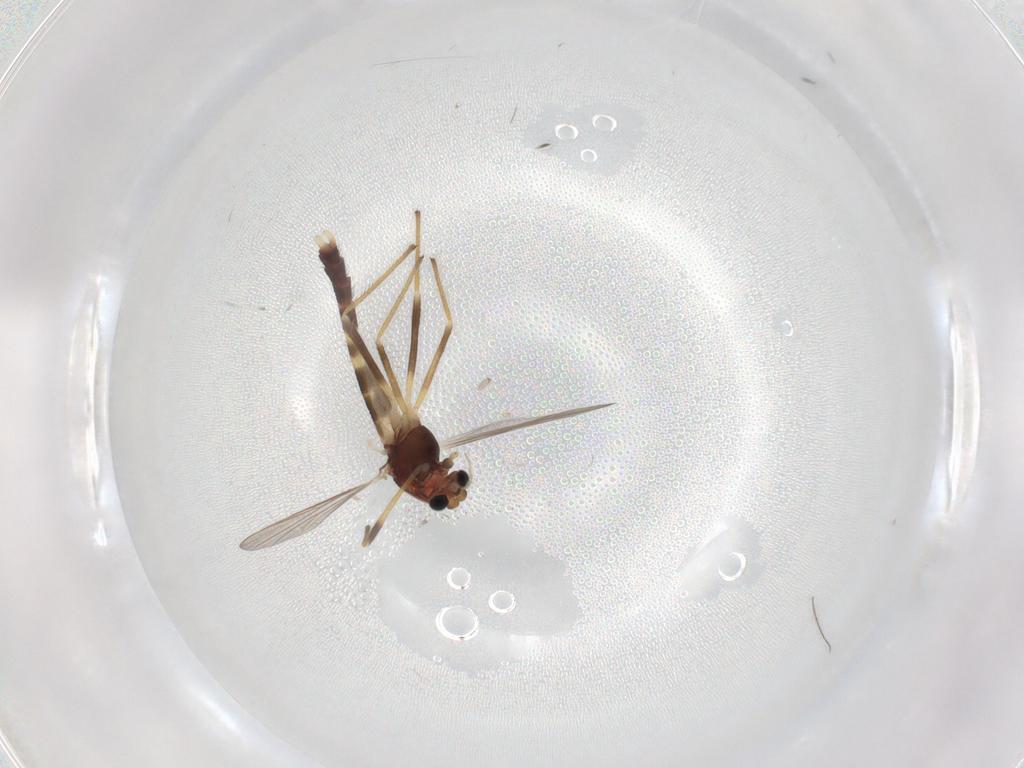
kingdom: Animalia
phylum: Arthropoda
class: Insecta
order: Diptera
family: Chironomidae
